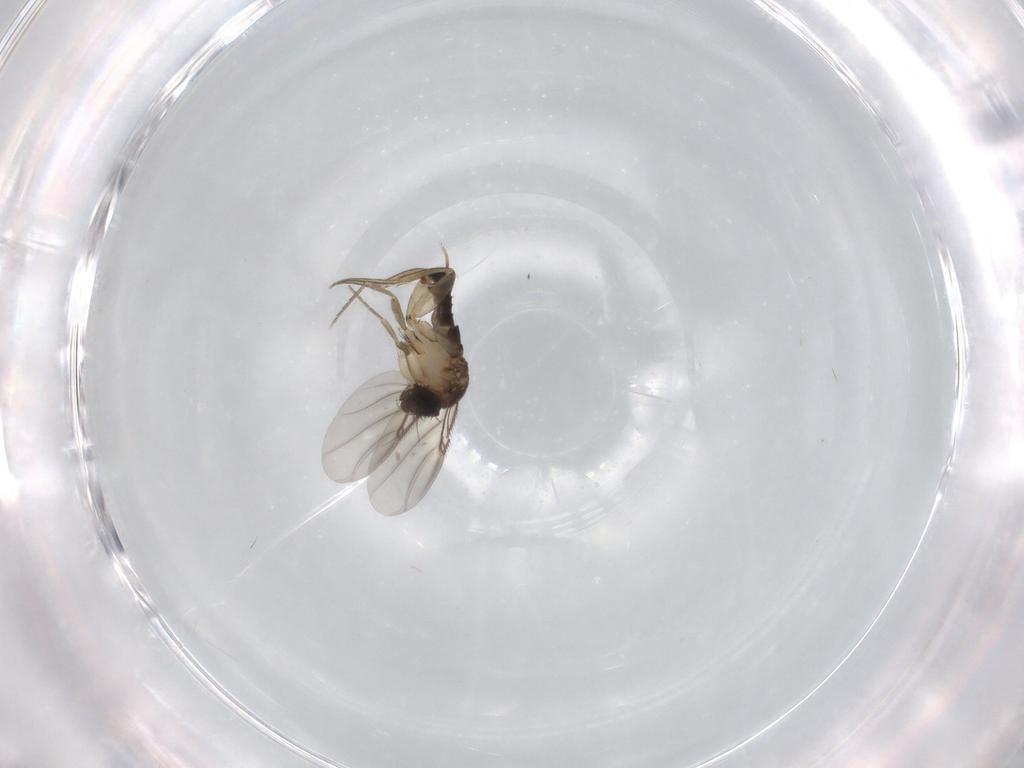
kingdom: Animalia
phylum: Arthropoda
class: Insecta
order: Diptera
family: Phoridae
